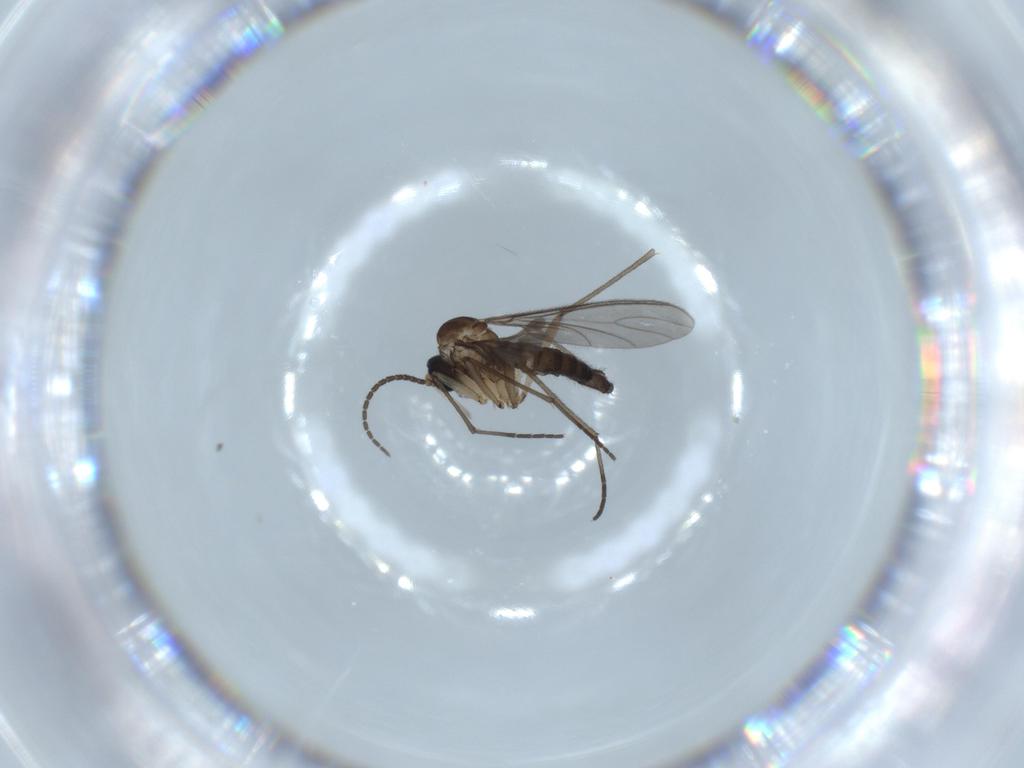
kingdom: Animalia
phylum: Arthropoda
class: Insecta
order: Diptera
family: Sciaridae
